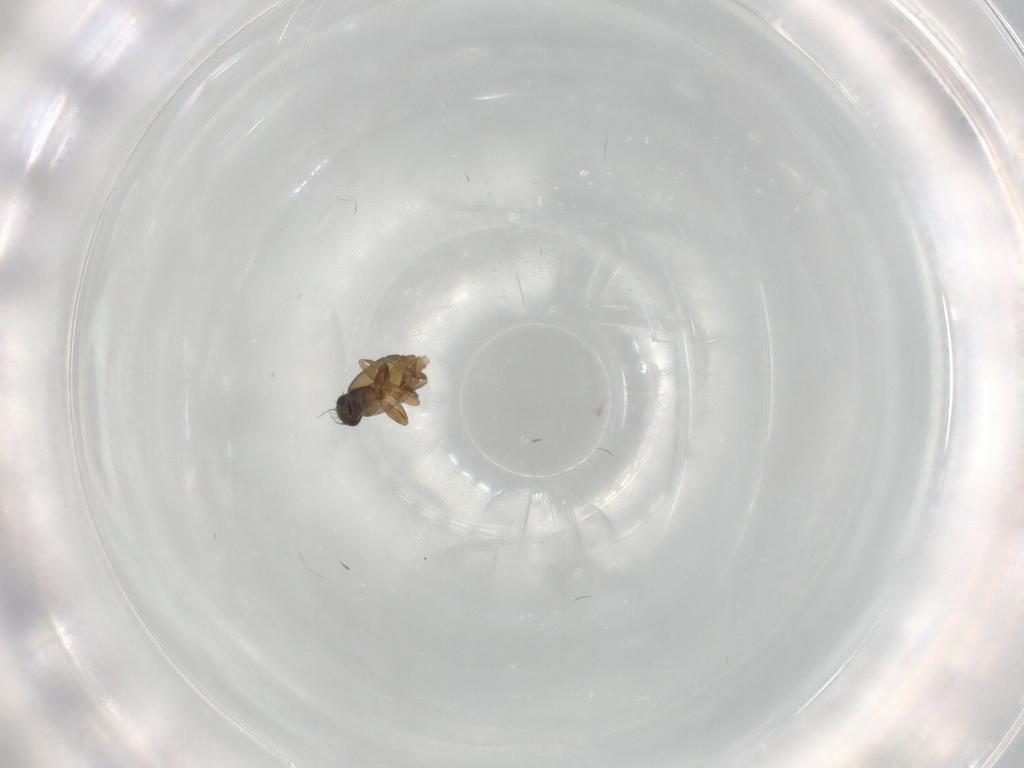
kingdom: Animalia
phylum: Arthropoda
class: Insecta
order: Diptera
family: Phoridae
